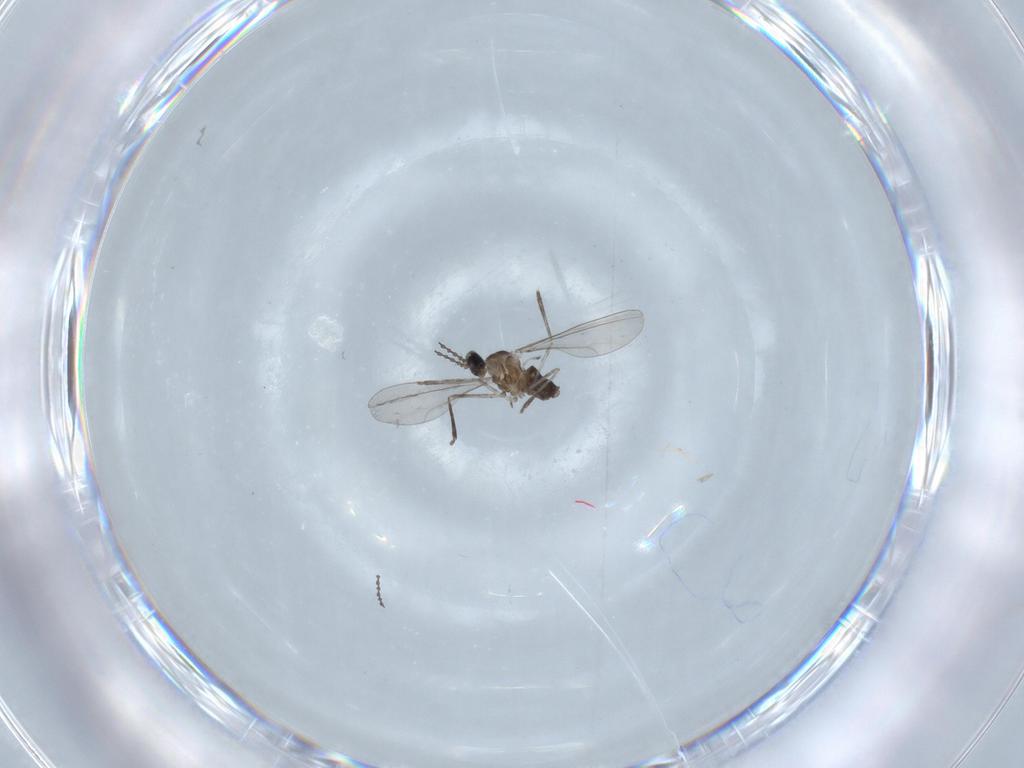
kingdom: Animalia
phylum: Arthropoda
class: Insecta
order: Diptera
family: Cecidomyiidae
